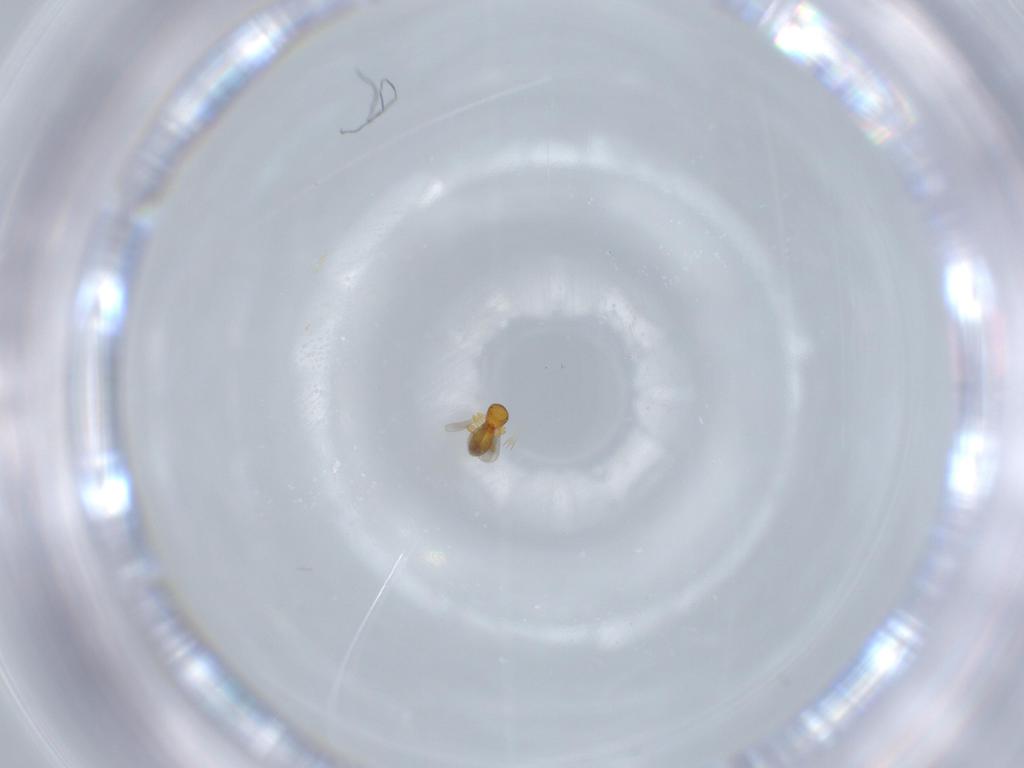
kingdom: Animalia
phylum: Arthropoda
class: Insecta
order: Hymenoptera
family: Platygastridae
